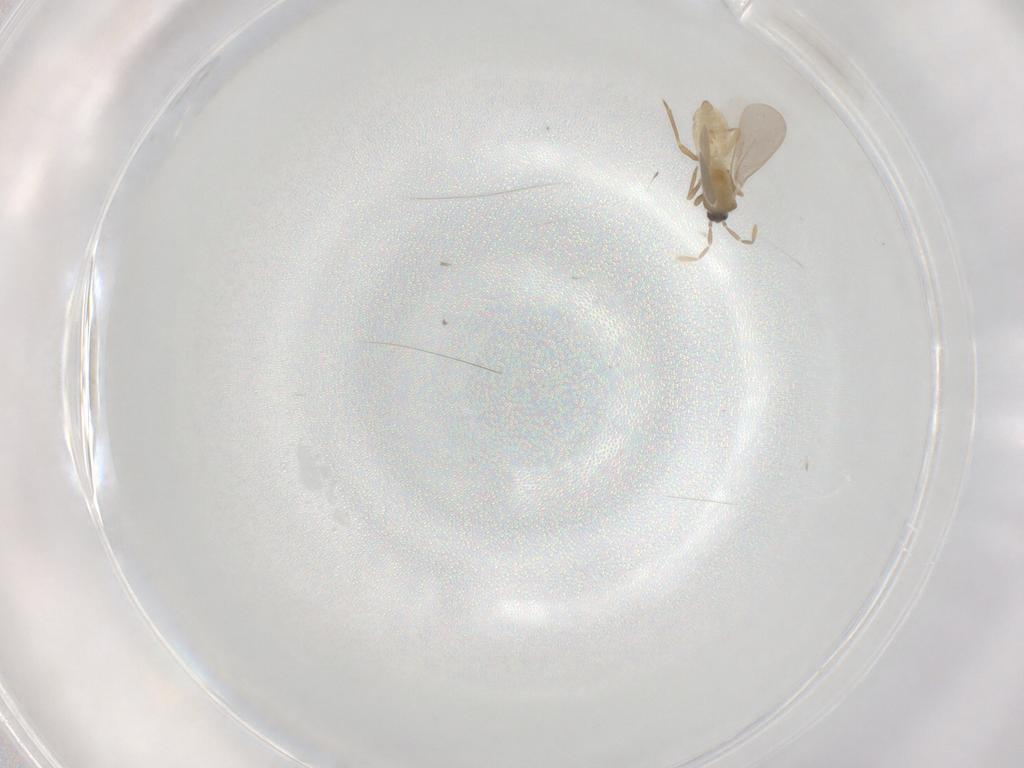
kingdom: Animalia
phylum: Arthropoda
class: Insecta
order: Hemiptera
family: Enicocephalidae
